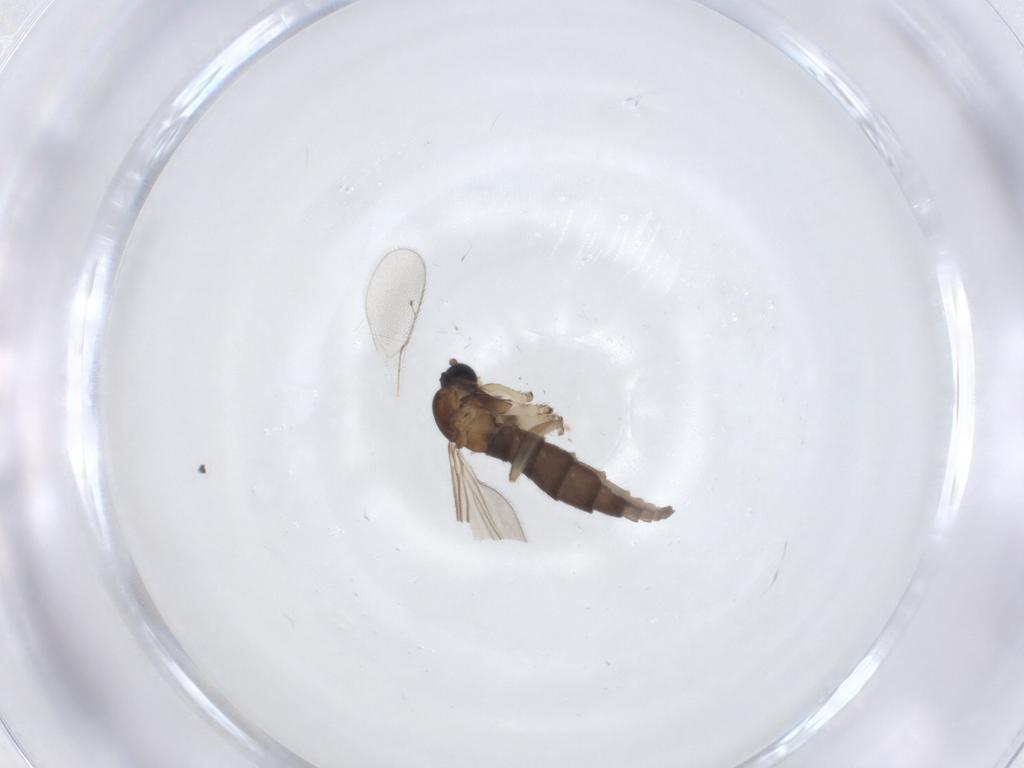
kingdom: Animalia
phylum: Arthropoda
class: Insecta
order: Diptera
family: Sciaridae
